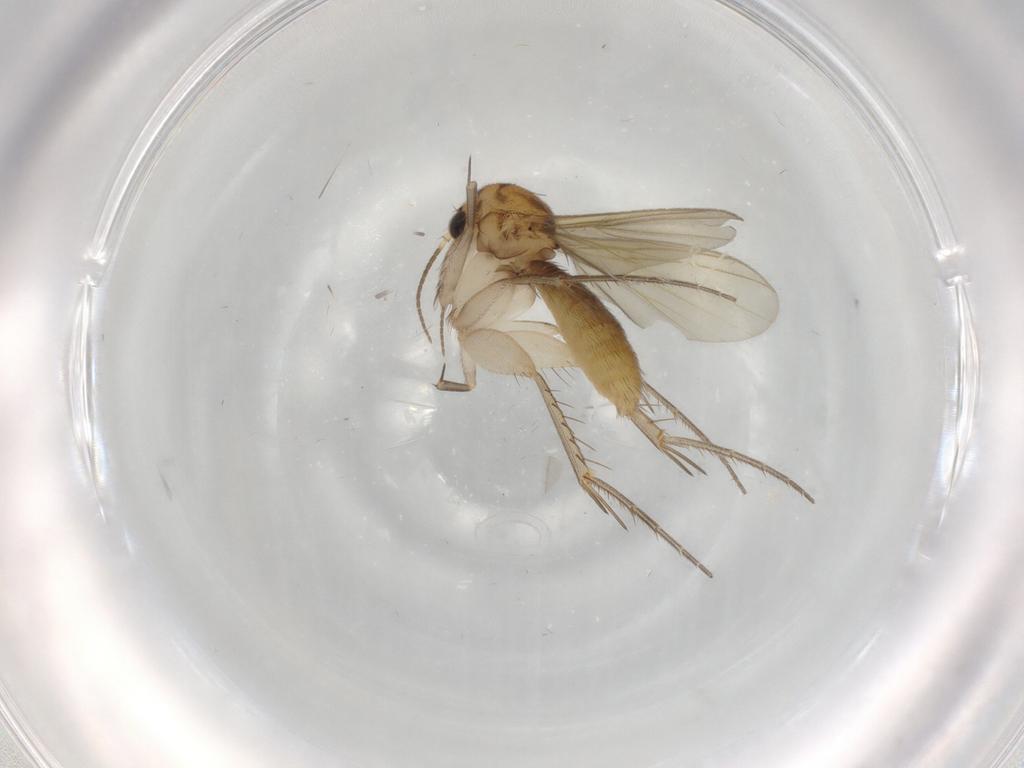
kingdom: Animalia
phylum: Arthropoda
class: Insecta
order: Diptera
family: Mycetophilidae
